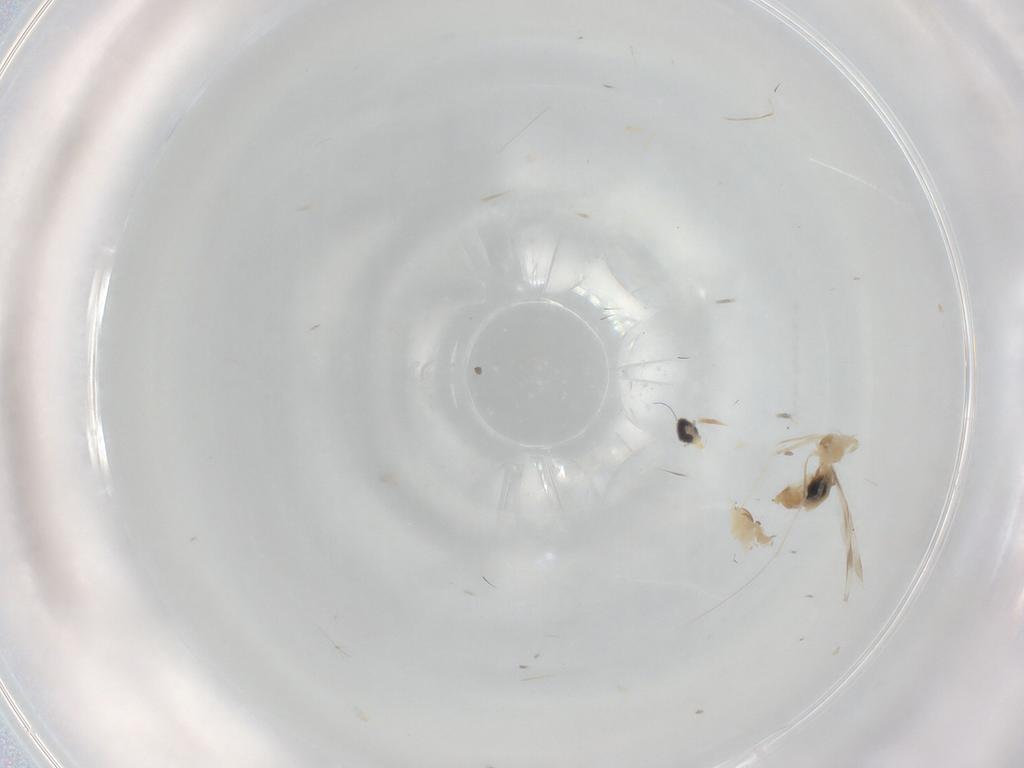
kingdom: Animalia
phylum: Arthropoda
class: Insecta
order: Diptera
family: Cecidomyiidae
